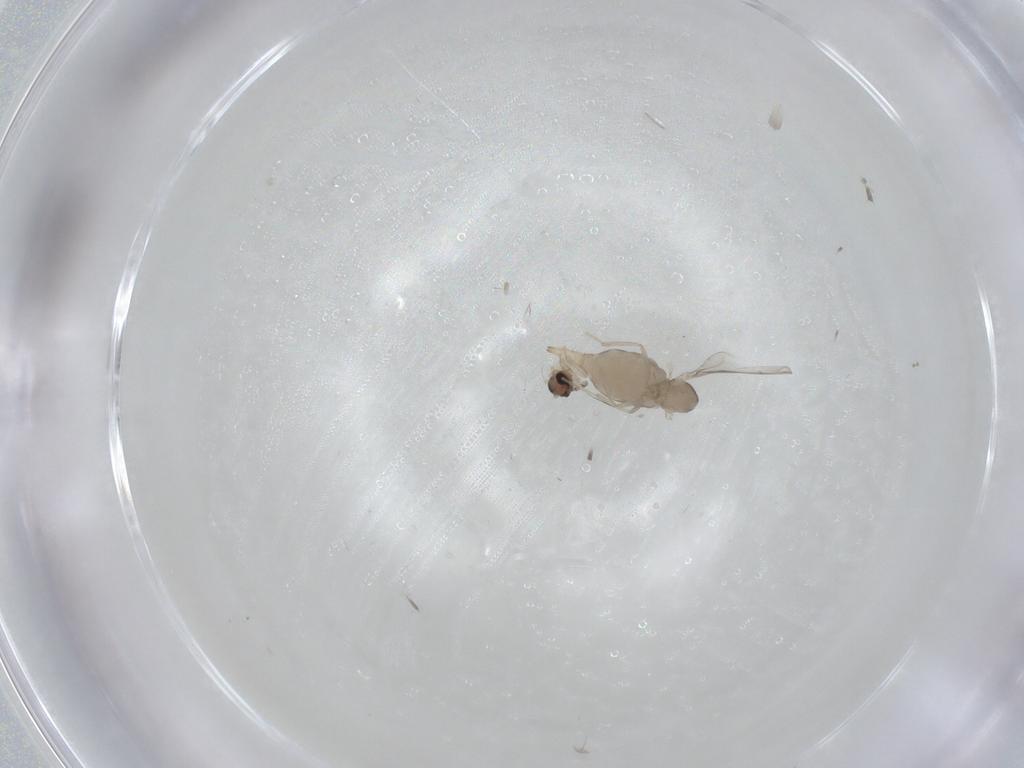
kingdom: Animalia
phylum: Arthropoda
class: Insecta
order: Diptera
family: Cecidomyiidae
